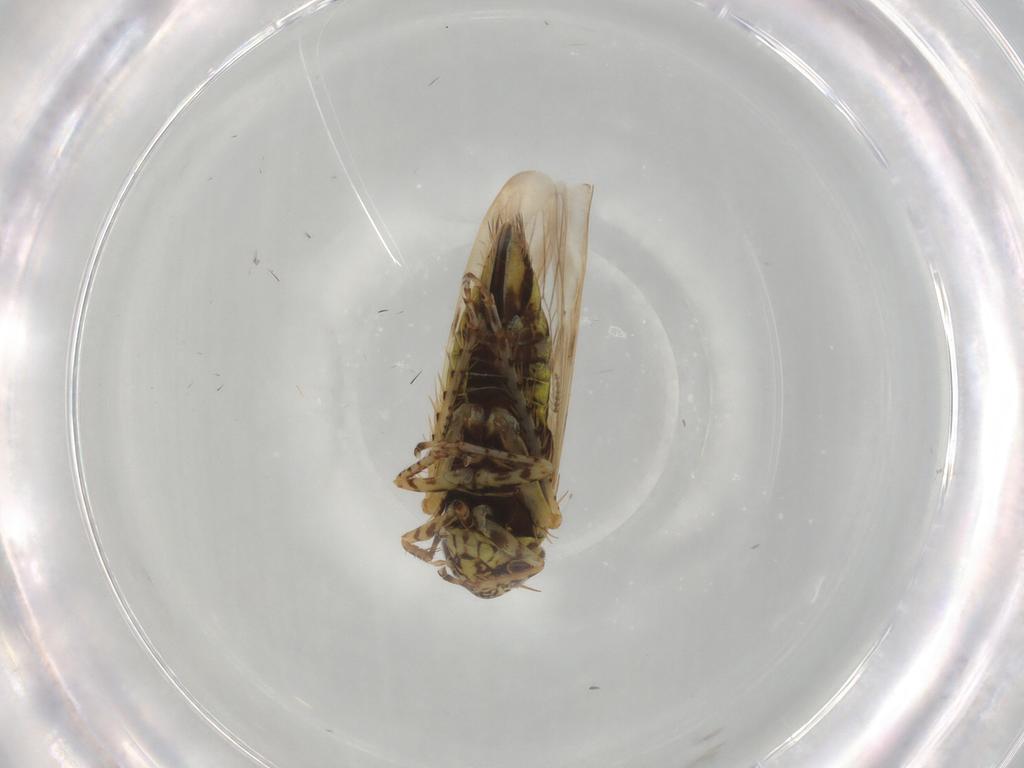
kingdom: Animalia
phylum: Arthropoda
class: Insecta
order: Hemiptera
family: Cicadellidae
